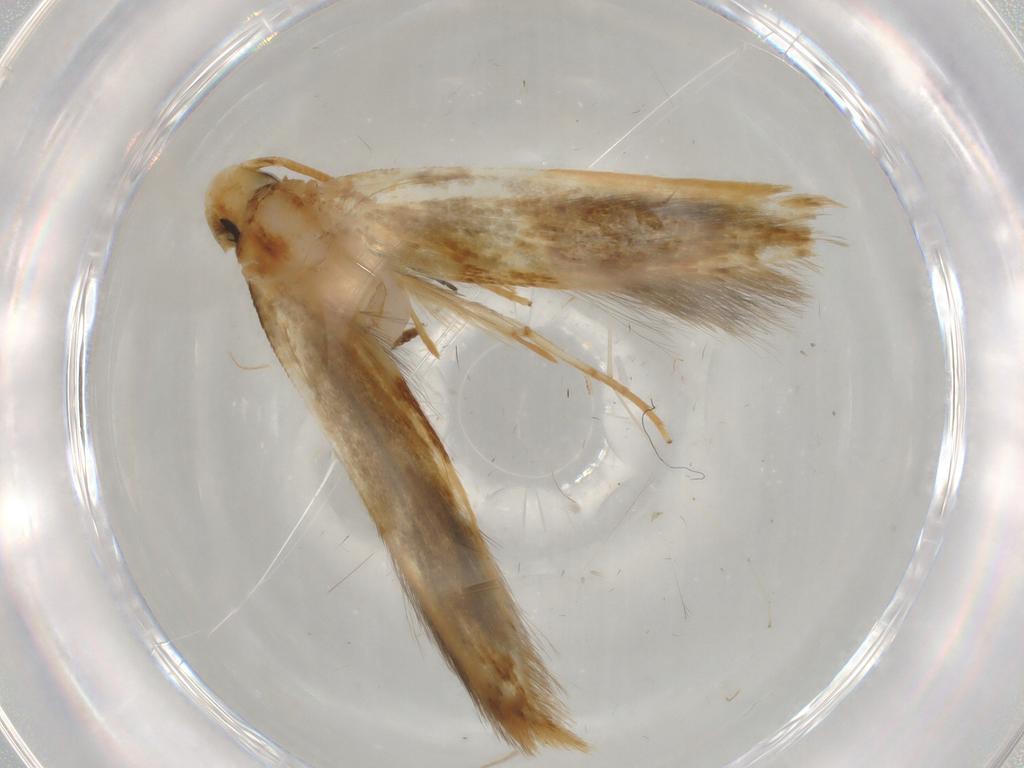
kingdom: Animalia
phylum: Arthropoda
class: Insecta
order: Lepidoptera
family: Tineidae
